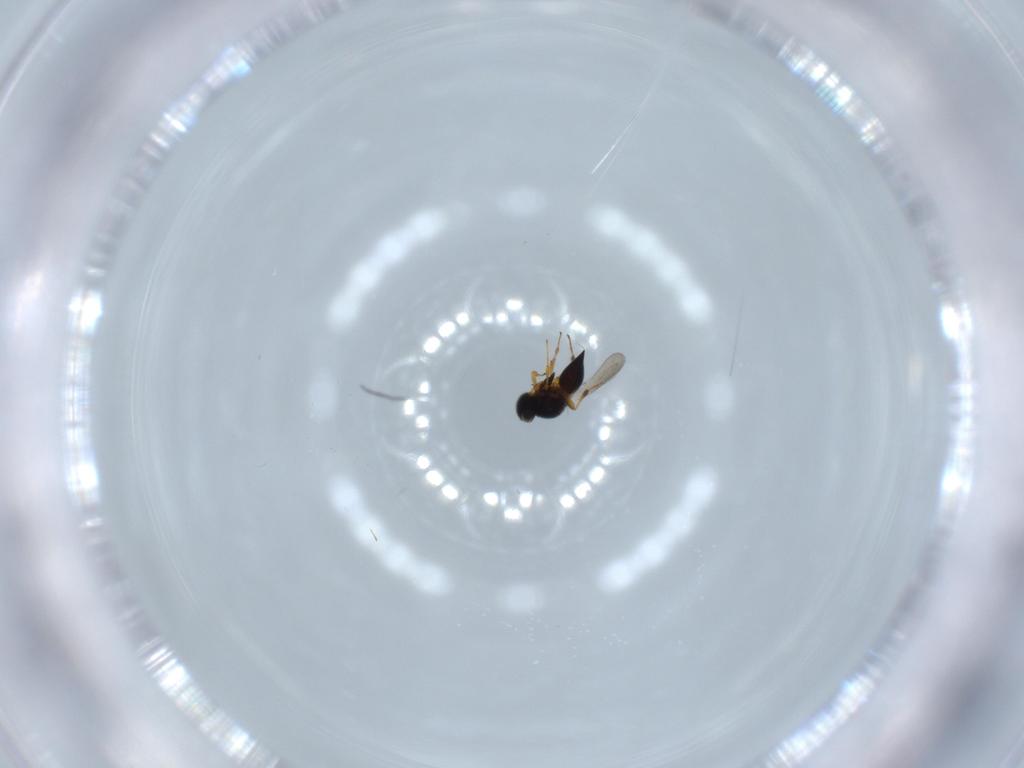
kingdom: Animalia
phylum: Arthropoda
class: Insecta
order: Hymenoptera
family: Platygastridae
